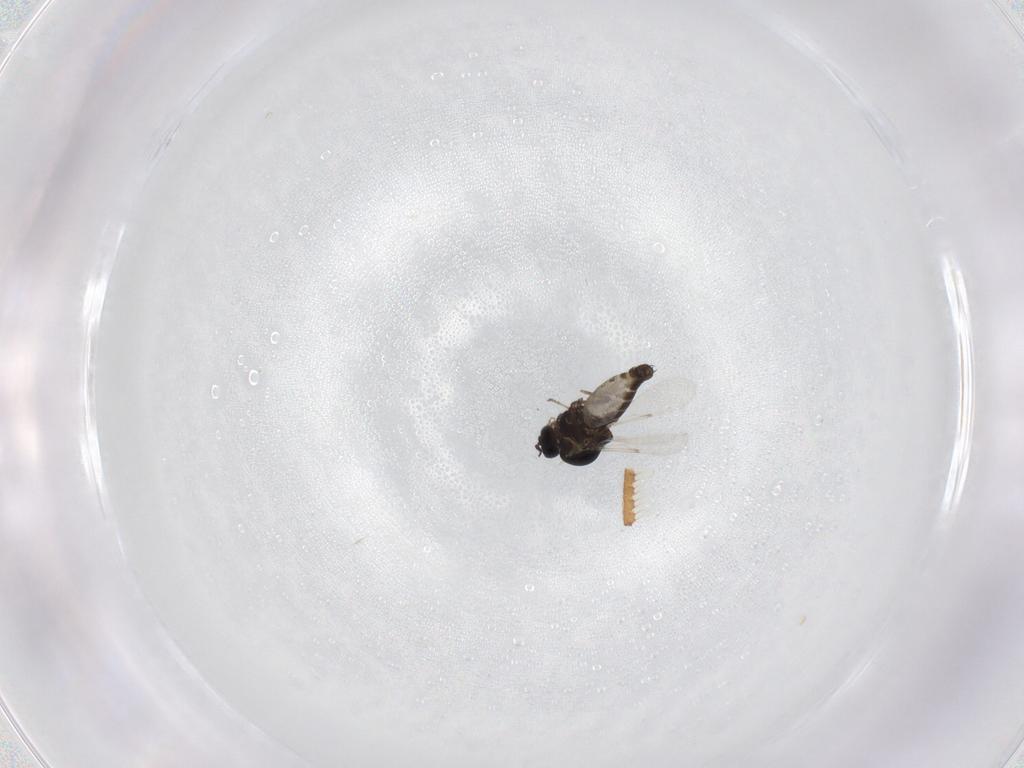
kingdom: Animalia
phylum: Arthropoda
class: Insecta
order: Diptera
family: Ceratopogonidae
